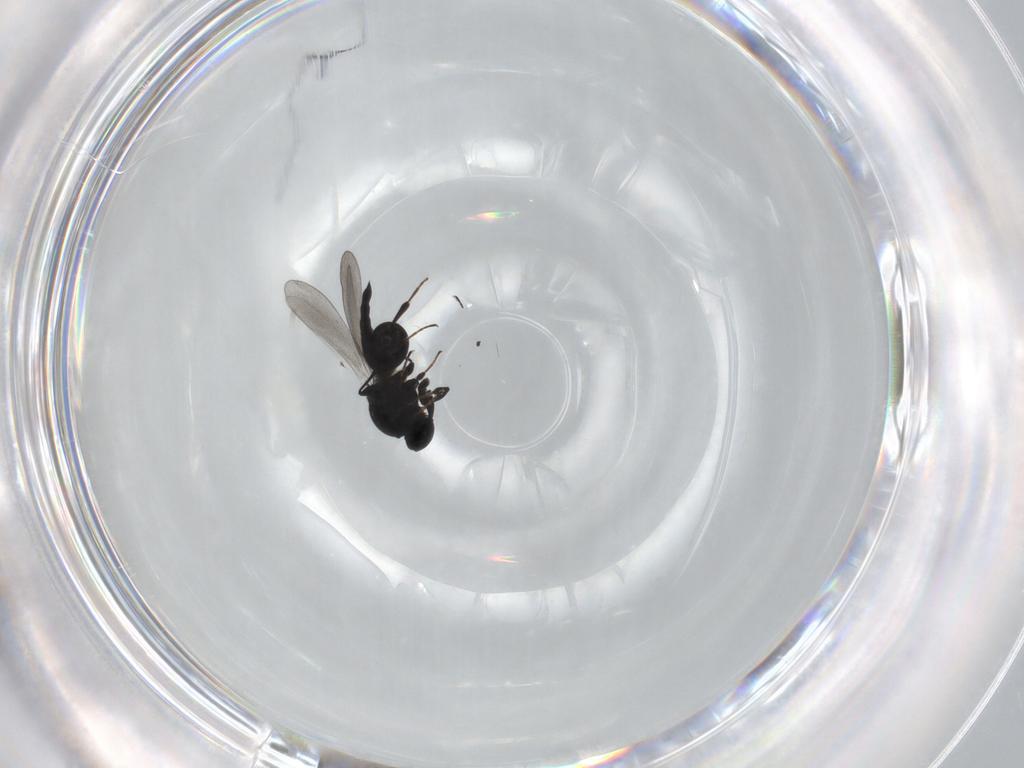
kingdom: Animalia
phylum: Arthropoda
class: Insecta
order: Hymenoptera
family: Platygastridae
